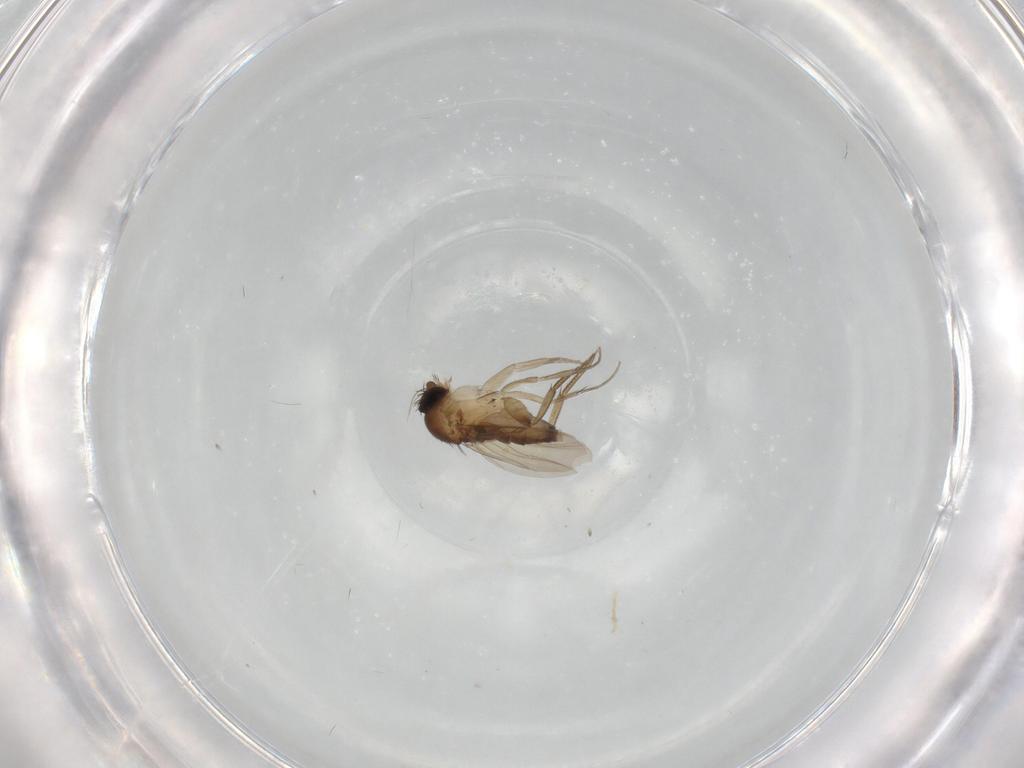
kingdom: Animalia
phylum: Arthropoda
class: Insecta
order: Diptera
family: Phoridae
